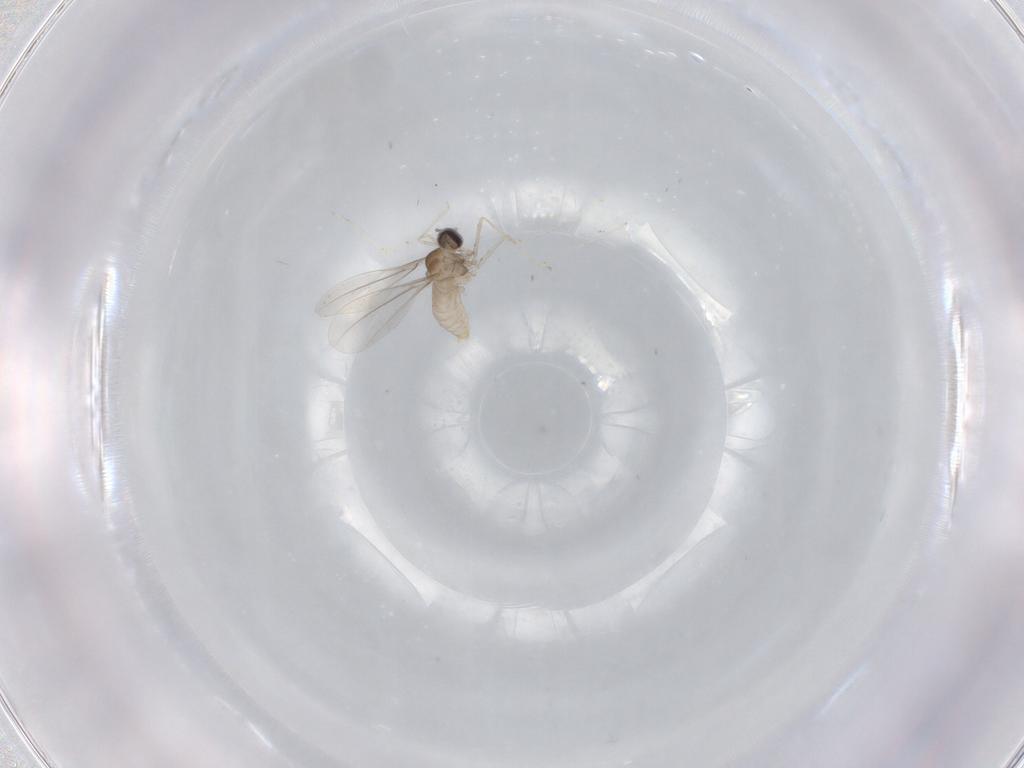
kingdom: Animalia
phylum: Arthropoda
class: Insecta
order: Diptera
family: Cecidomyiidae
